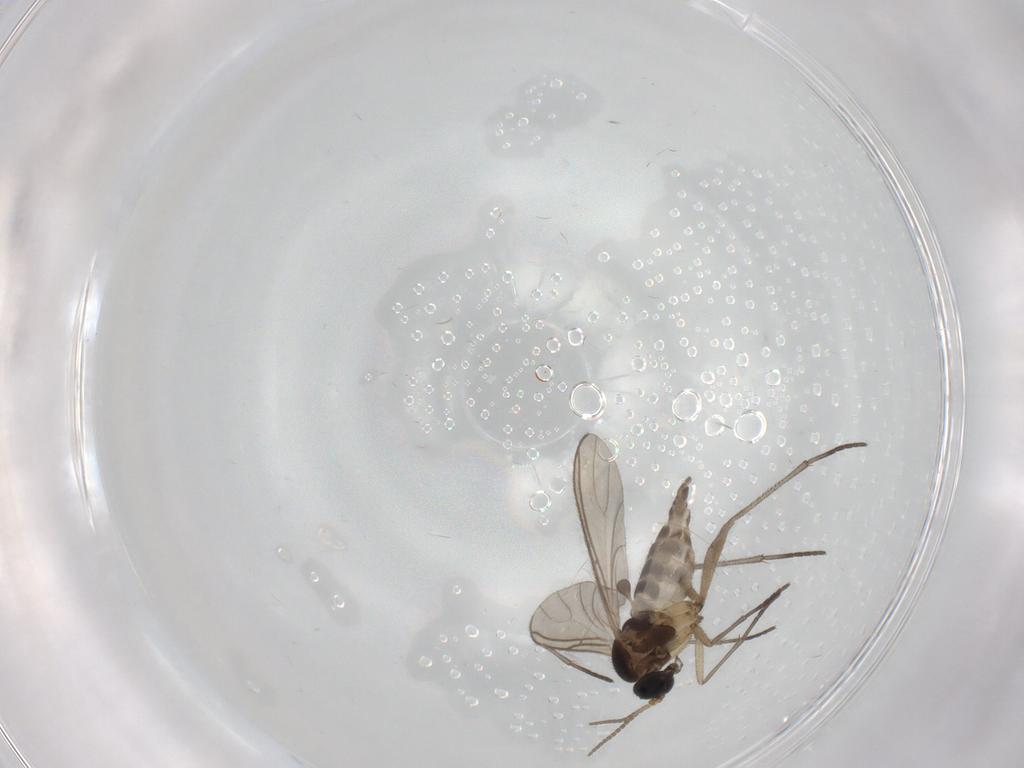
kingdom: Animalia
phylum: Arthropoda
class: Insecta
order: Diptera
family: Sciaridae
